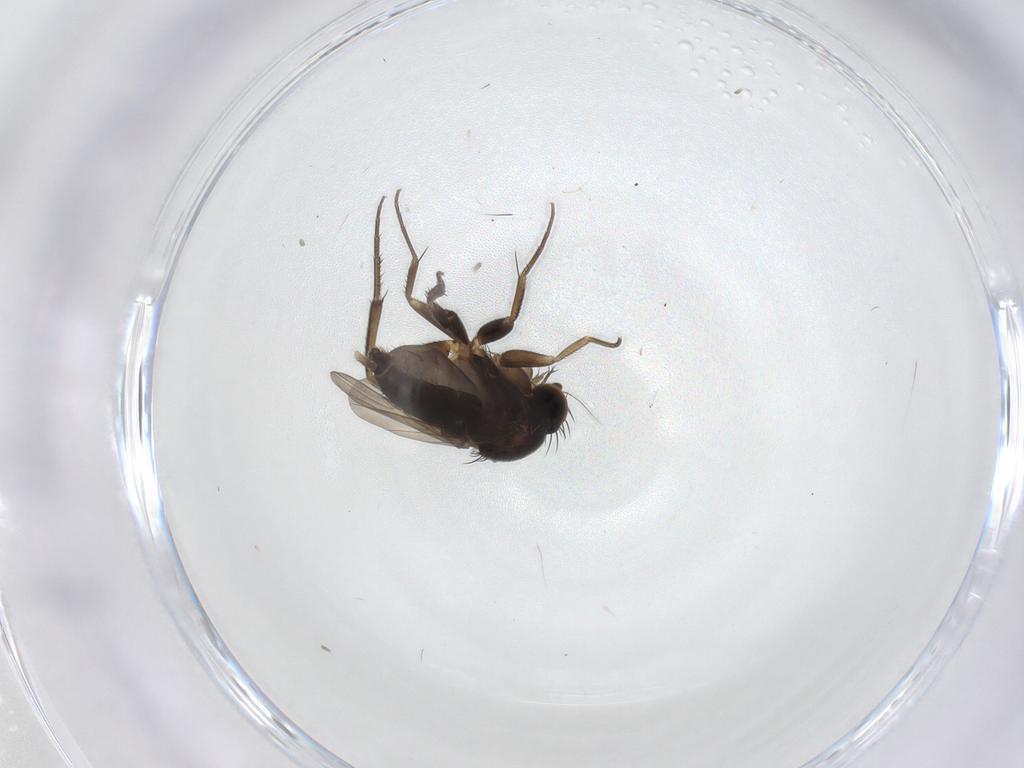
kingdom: Animalia
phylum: Arthropoda
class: Insecta
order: Diptera
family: Phoridae
